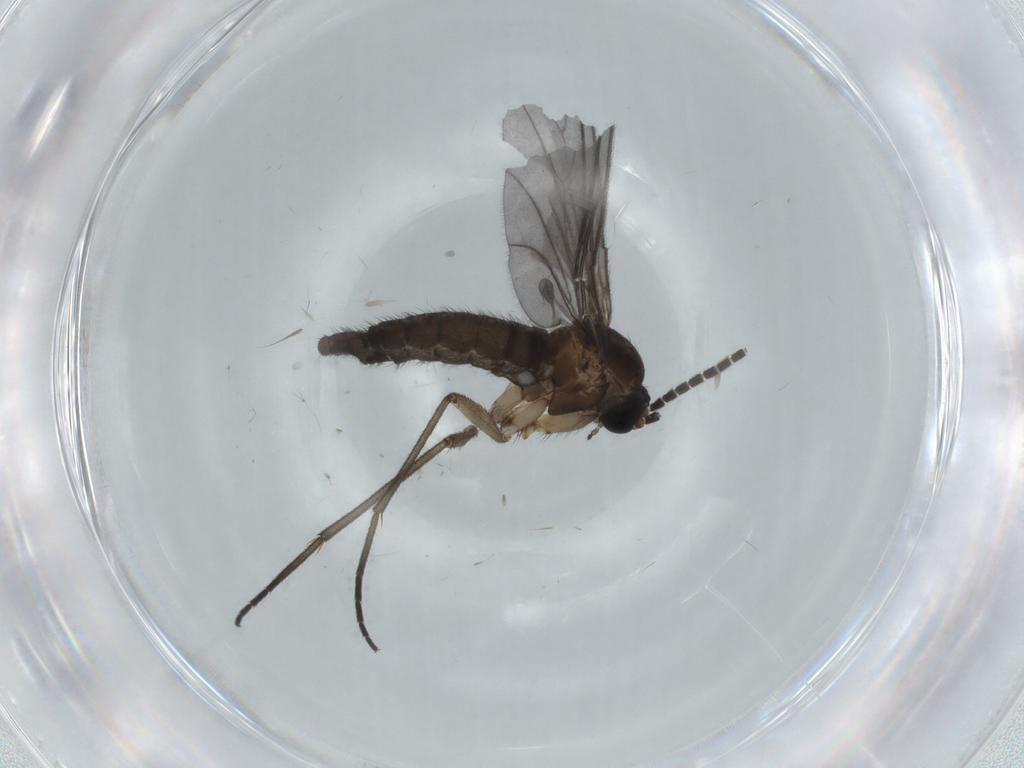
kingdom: Animalia
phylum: Arthropoda
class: Insecta
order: Diptera
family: Sciaridae
